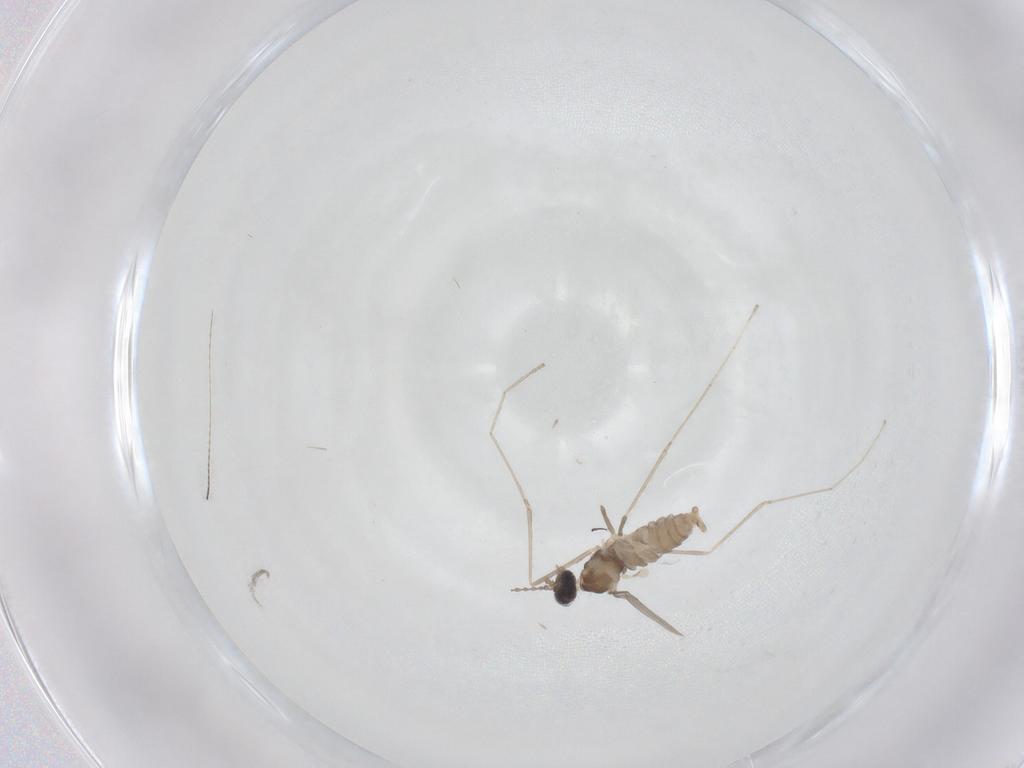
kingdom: Animalia
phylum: Arthropoda
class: Insecta
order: Diptera
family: Cecidomyiidae
